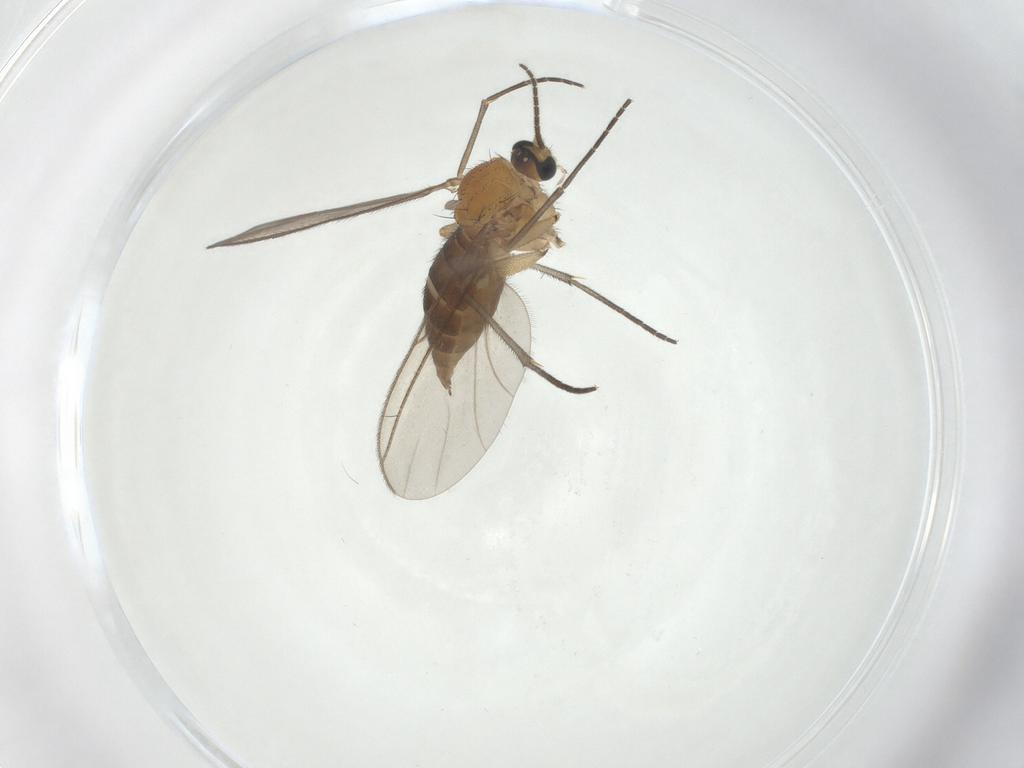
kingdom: Animalia
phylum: Arthropoda
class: Insecta
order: Diptera
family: Sciaridae
